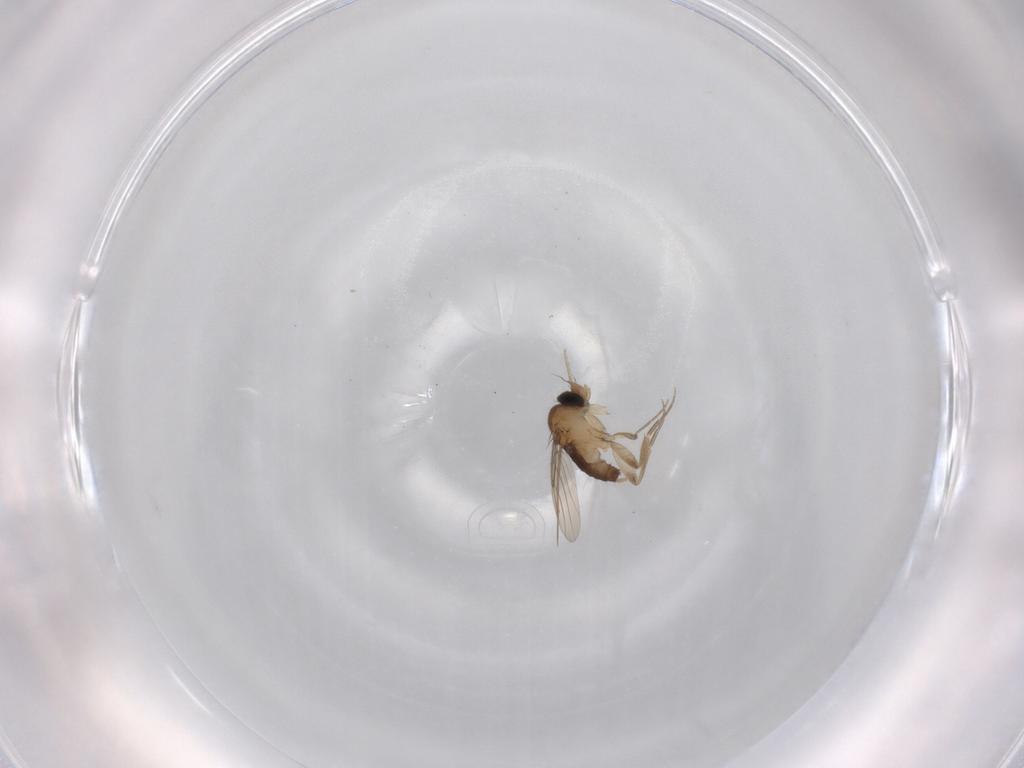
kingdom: Animalia
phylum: Arthropoda
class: Insecta
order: Diptera
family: Phoridae
